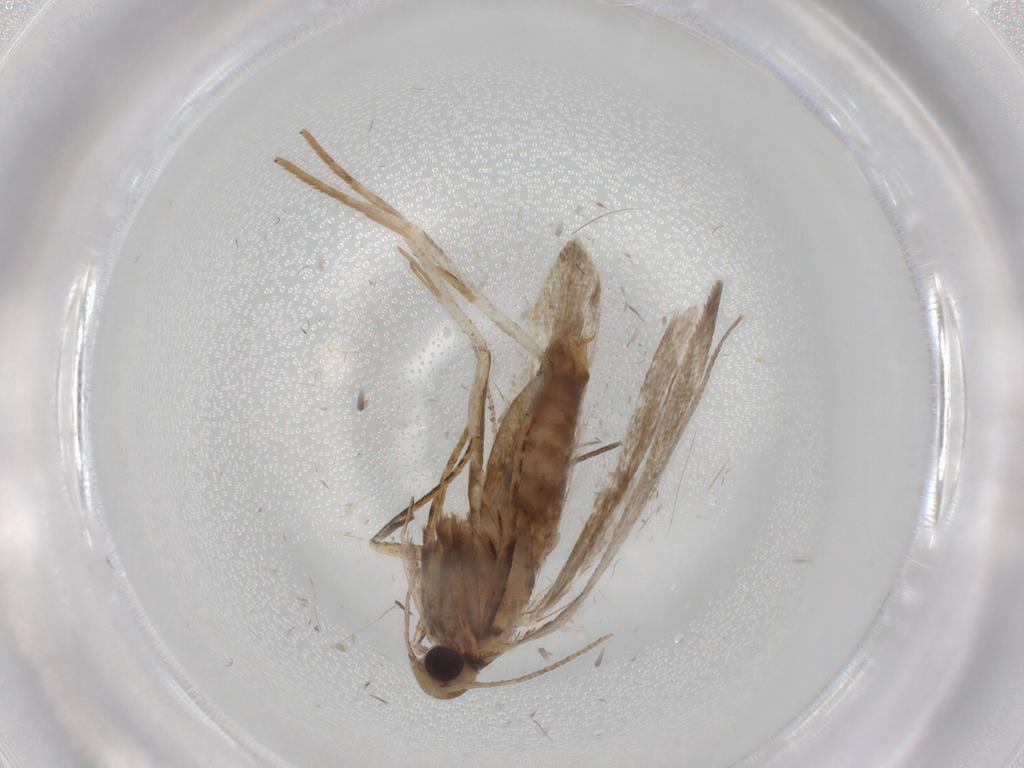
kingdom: Animalia
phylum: Arthropoda
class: Insecta
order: Lepidoptera
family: Gelechiidae
